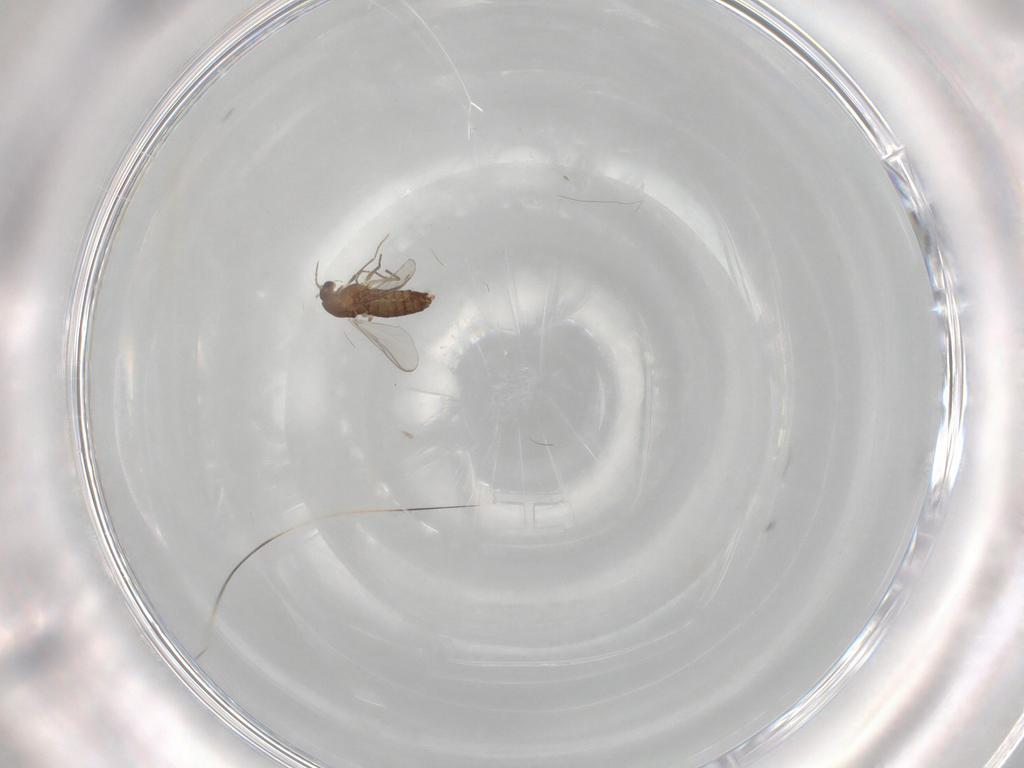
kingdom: Animalia
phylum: Arthropoda
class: Insecta
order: Diptera
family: Chironomidae
